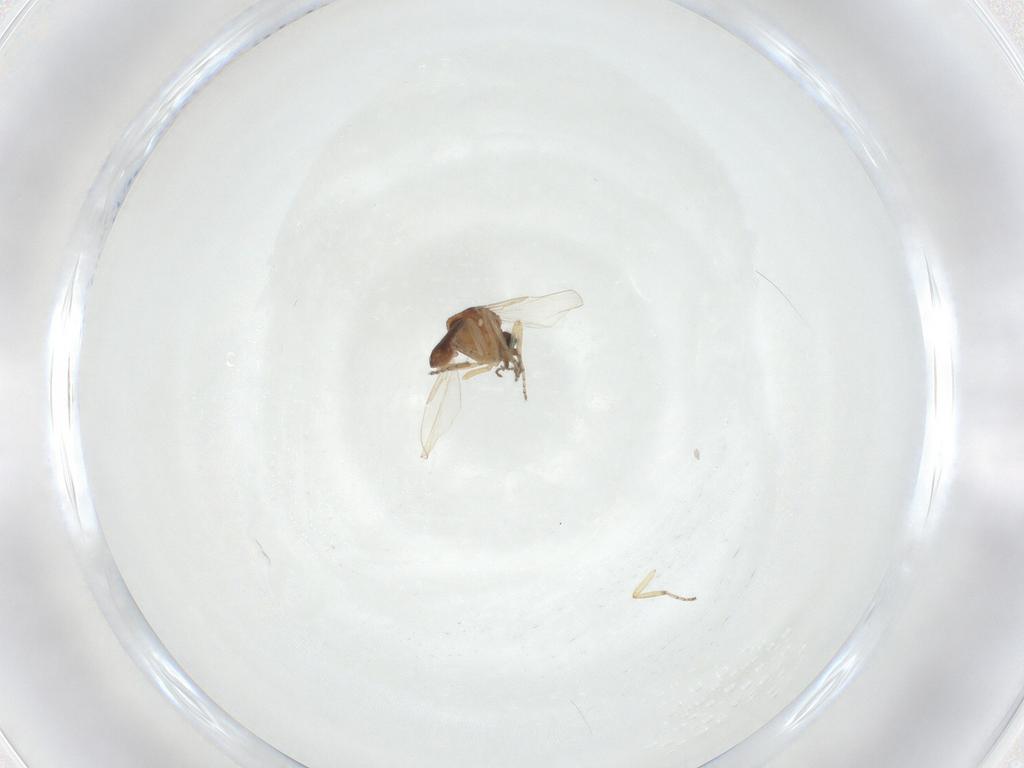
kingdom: Animalia
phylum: Arthropoda
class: Insecta
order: Diptera
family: Ceratopogonidae
